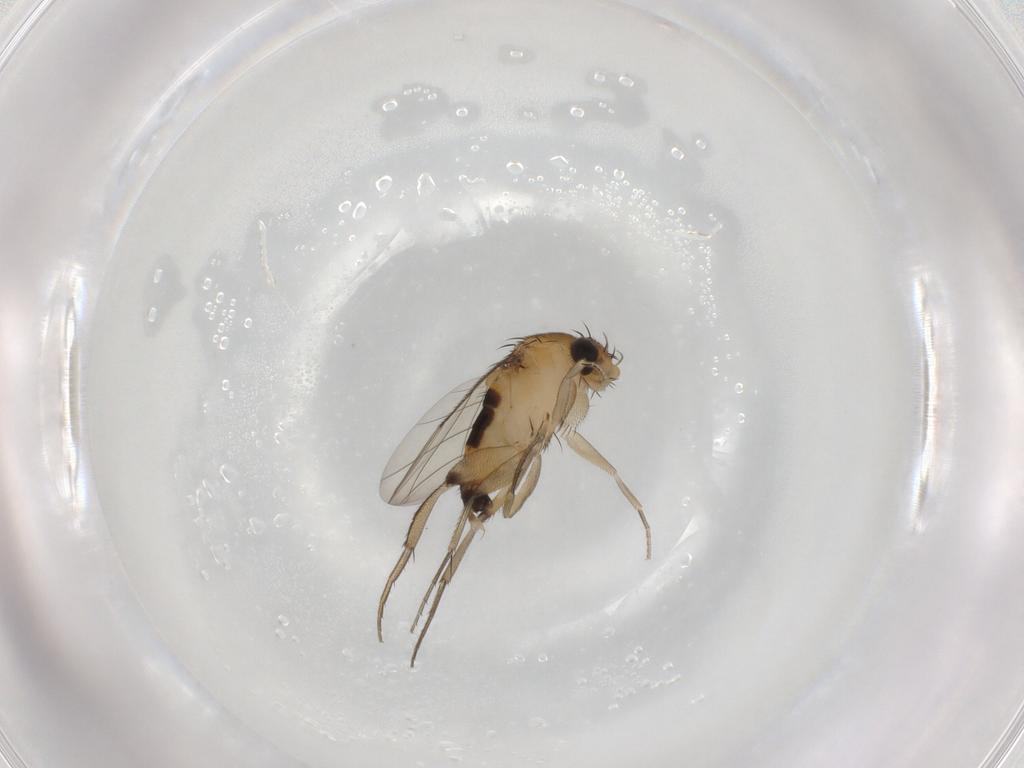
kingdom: Animalia
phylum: Arthropoda
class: Insecta
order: Diptera
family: Phoridae
